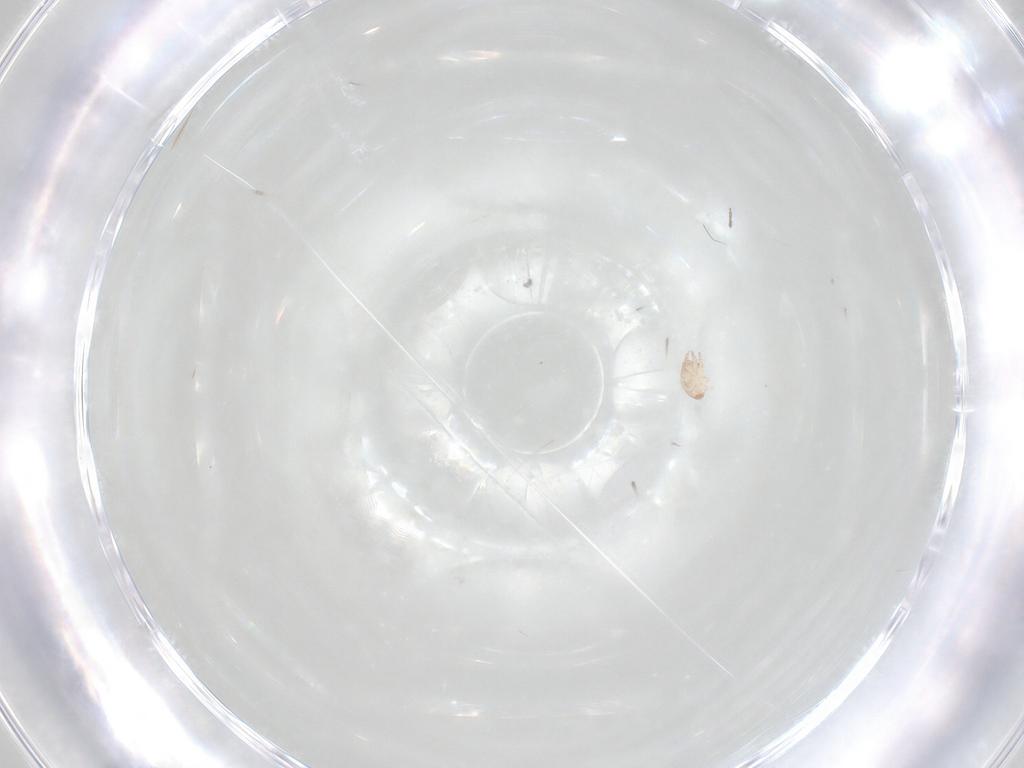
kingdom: Animalia
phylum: Arthropoda
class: Insecta
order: Diptera
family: Cecidomyiidae
